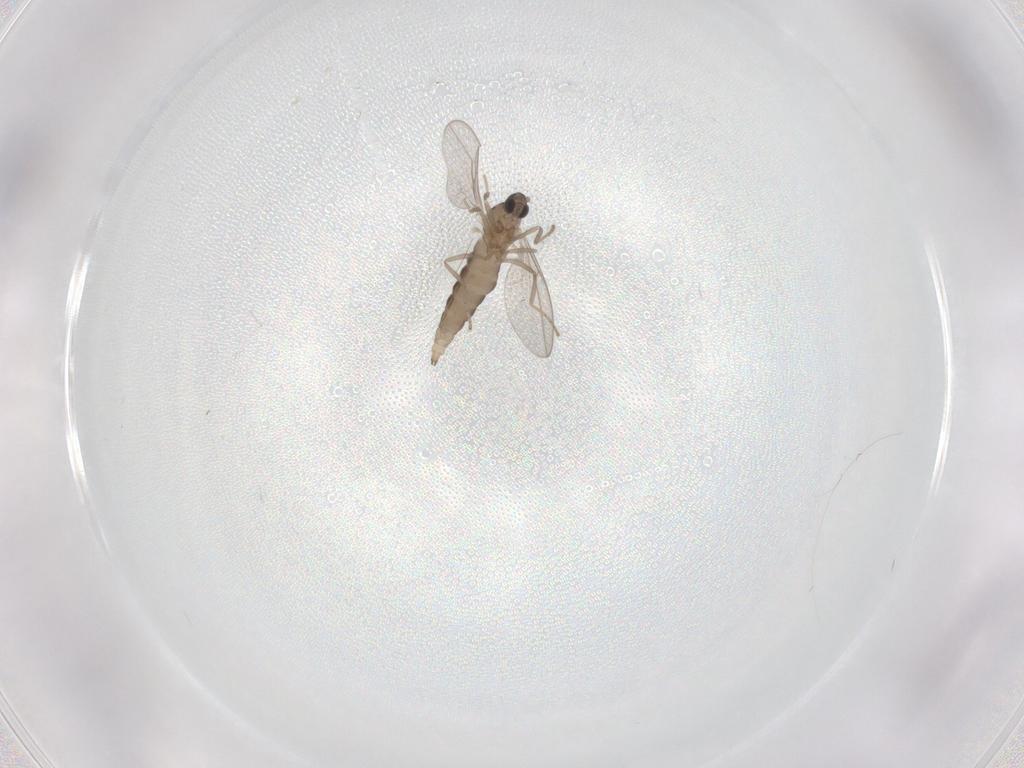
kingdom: Animalia
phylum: Arthropoda
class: Insecta
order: Diptera
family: Cecidomyiidae
